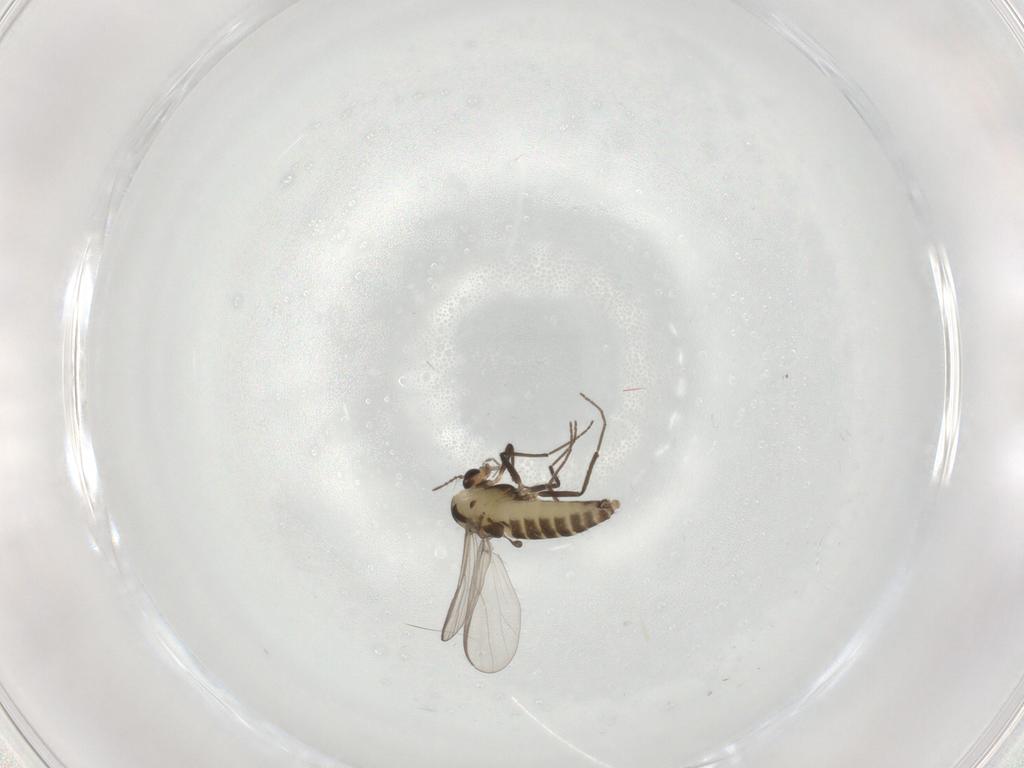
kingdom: Animalia
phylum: Arthropoda
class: Insecta
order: Diptera
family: Chironomidae
